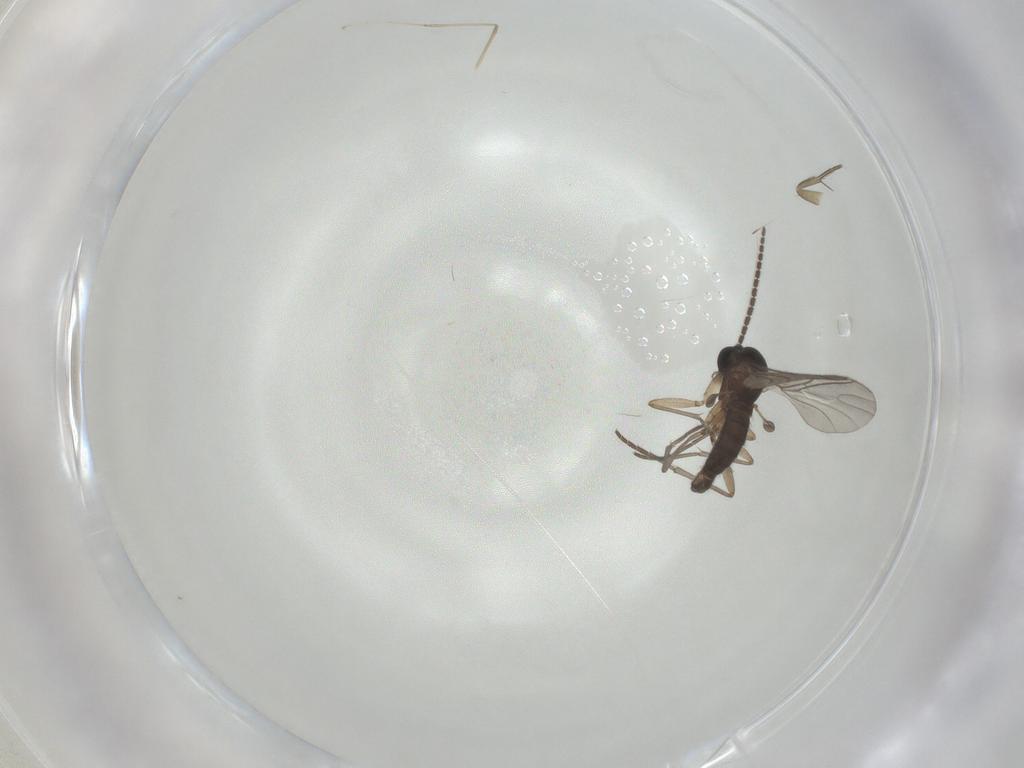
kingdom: Animalia
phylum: Arthropoda
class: Insecta
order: Diptera
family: Sciaridae
